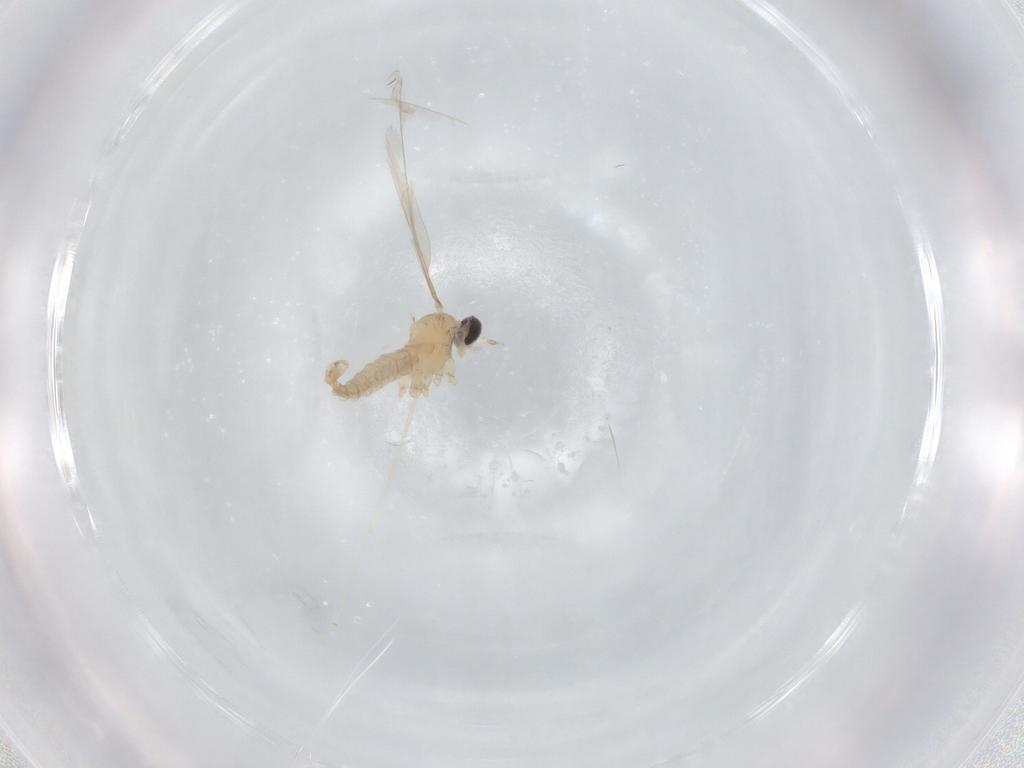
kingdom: Animalia
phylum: Arthropoda
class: Insecta
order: Diptera
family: Cecidomyiidae
